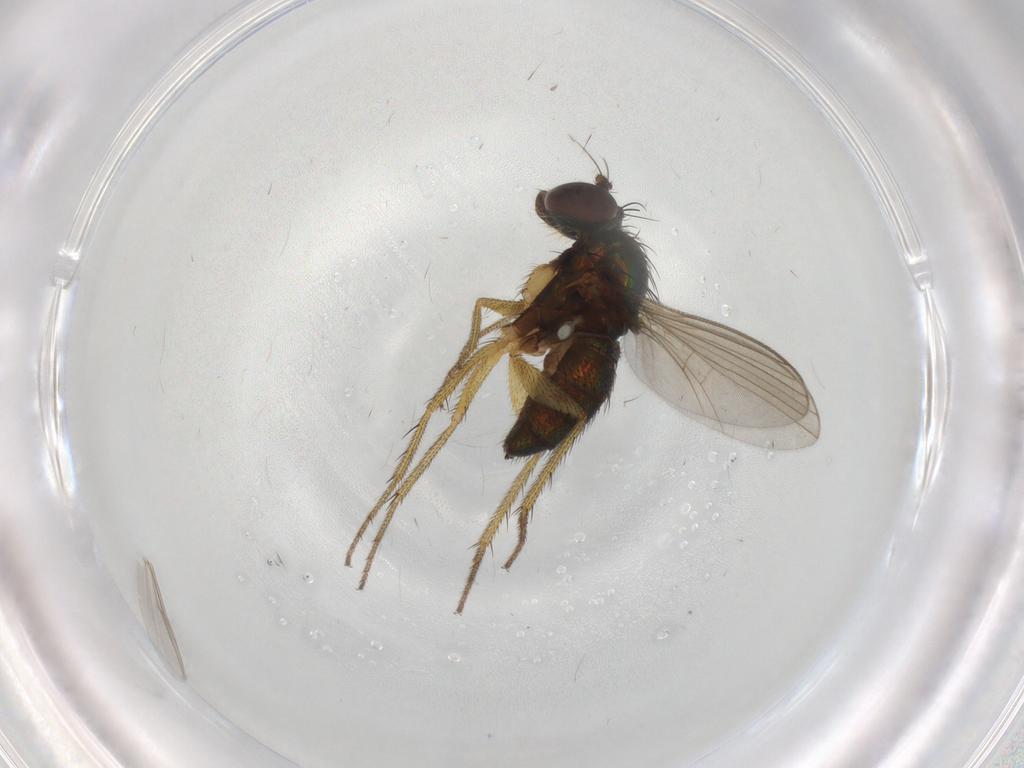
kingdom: Animalia
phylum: Arthropoda
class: Insecta
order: Diptera
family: Dolichopodidae
